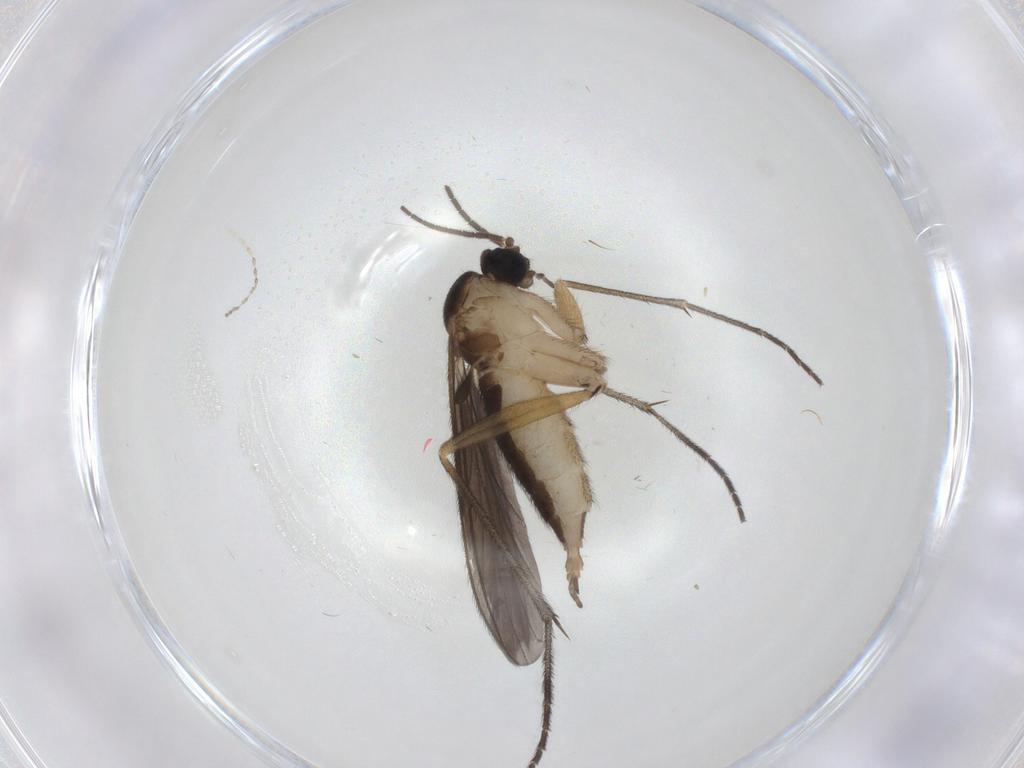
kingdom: Animalia
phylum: Arthropoda
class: Insecta
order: Diptera
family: Sciaridae
